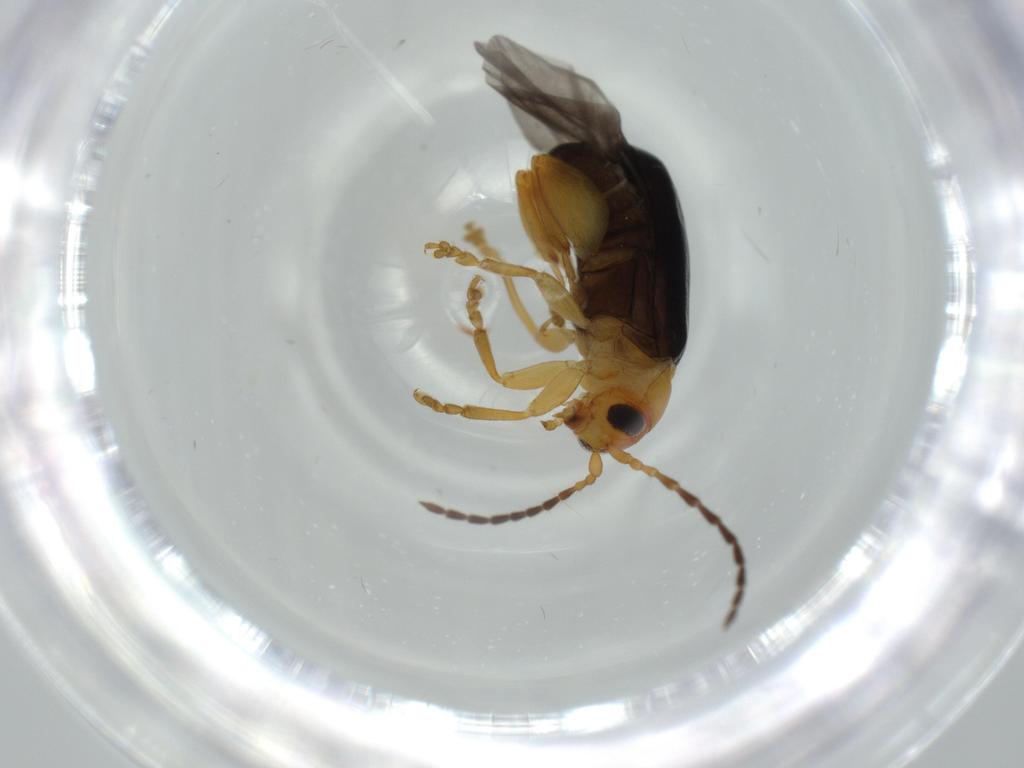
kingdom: Animalia
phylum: Arthropoda
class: Insecta
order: Coleoptera
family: Chrysomelidae
